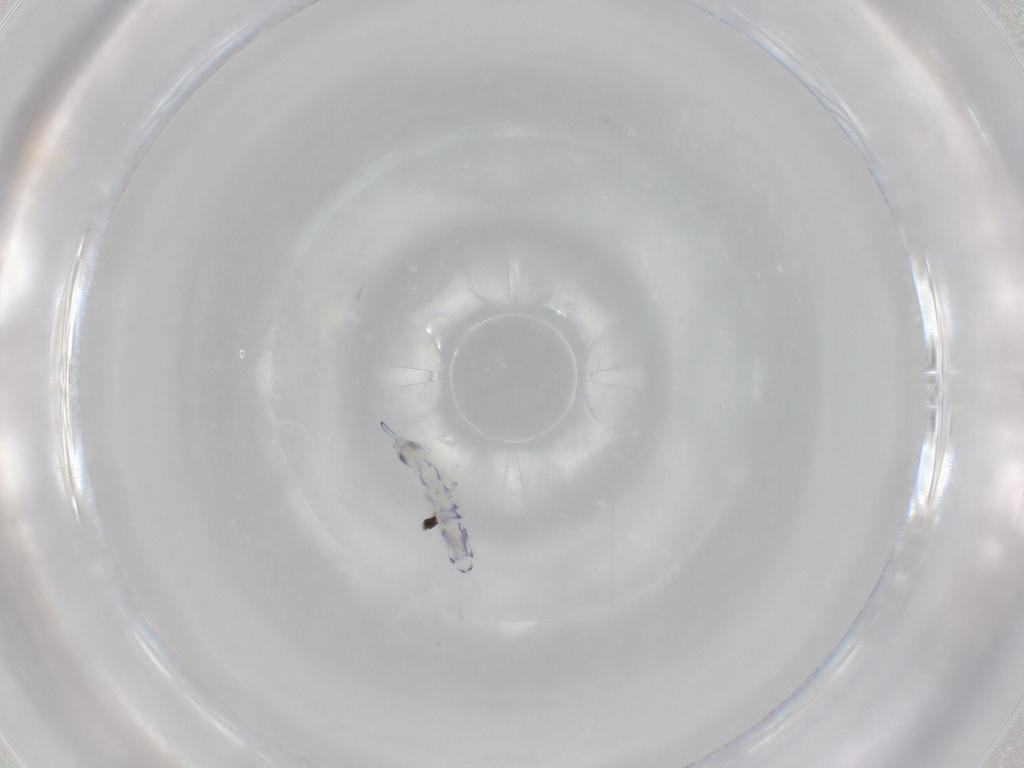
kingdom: Animalia
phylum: Arthropoda
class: Collembola
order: Entomobryomorpha
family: Entomobryidae
